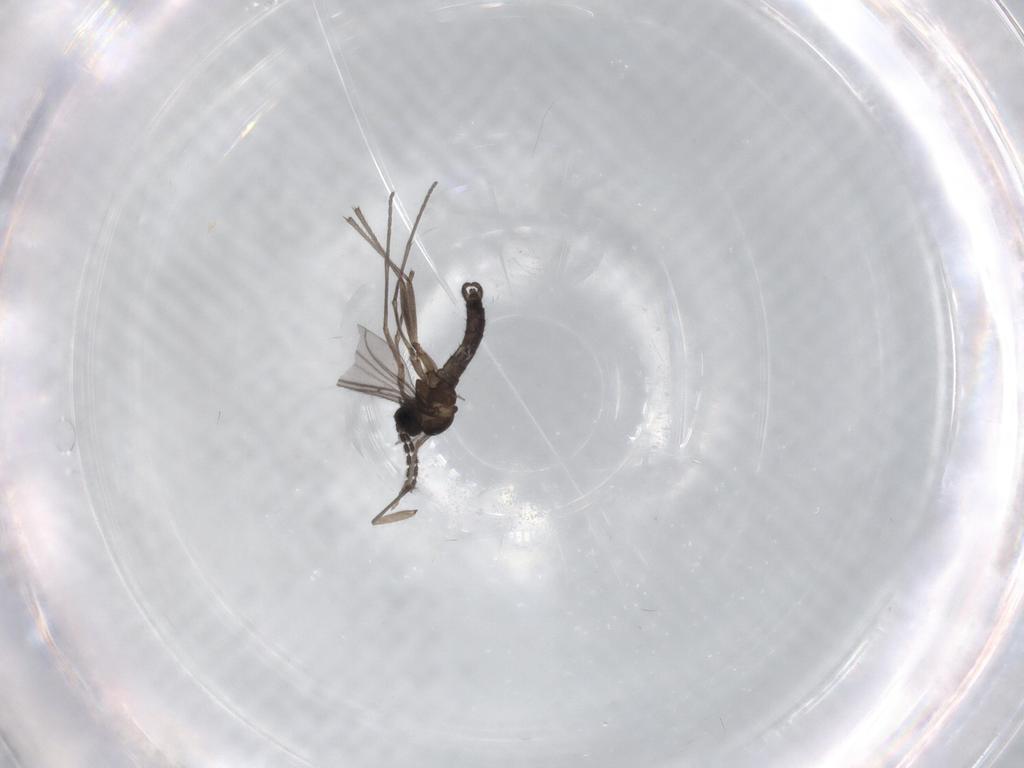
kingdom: Animalia
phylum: Arthropoda
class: Insecta
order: Diptera
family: Sciaridae
